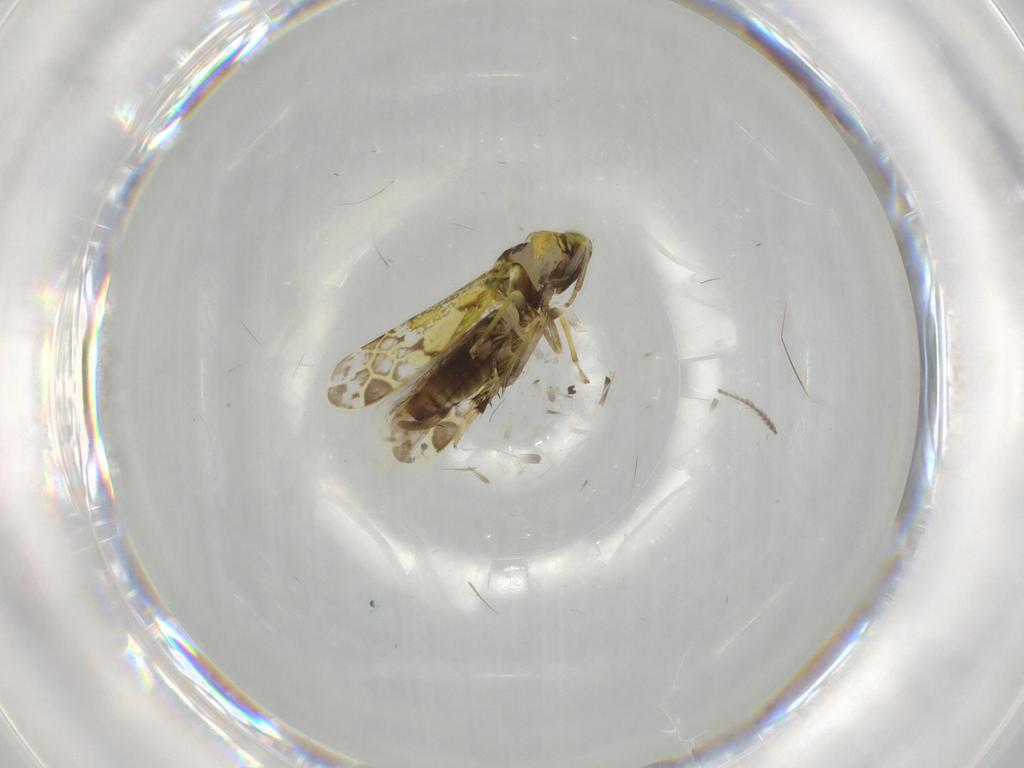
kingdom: Animalia
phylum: Arthropoda
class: Insecta
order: Hemiptera
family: Cicadellidae
